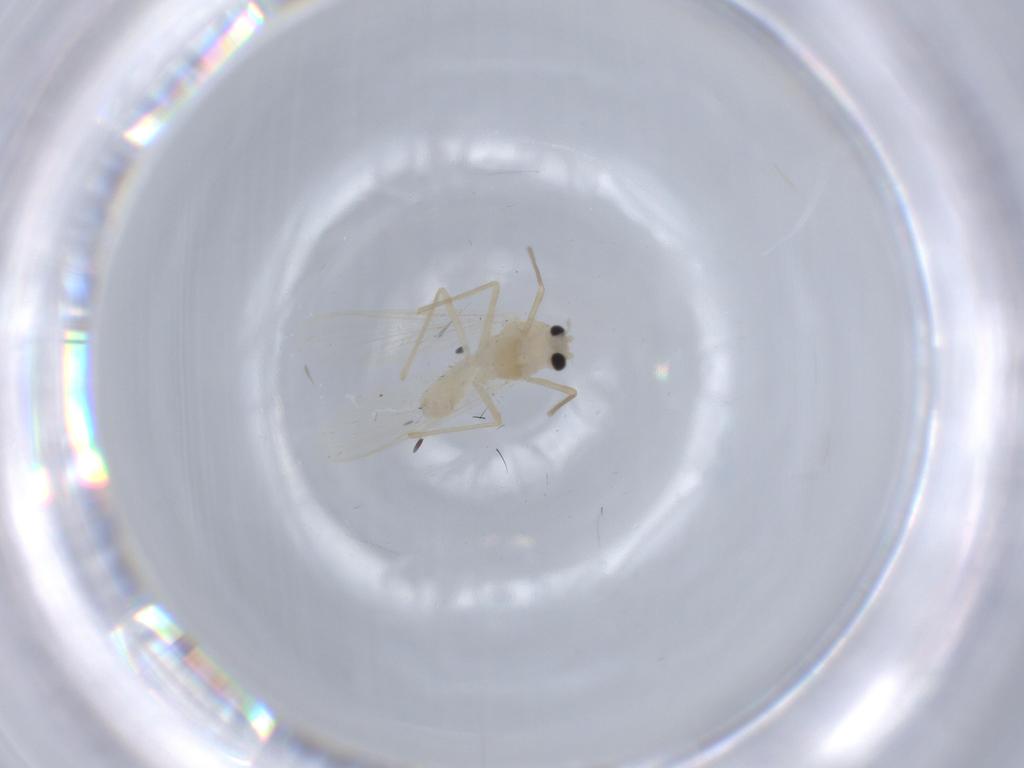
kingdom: Animalia
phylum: Arthropoda
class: Insecta
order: Diptera
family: Chironomidae
